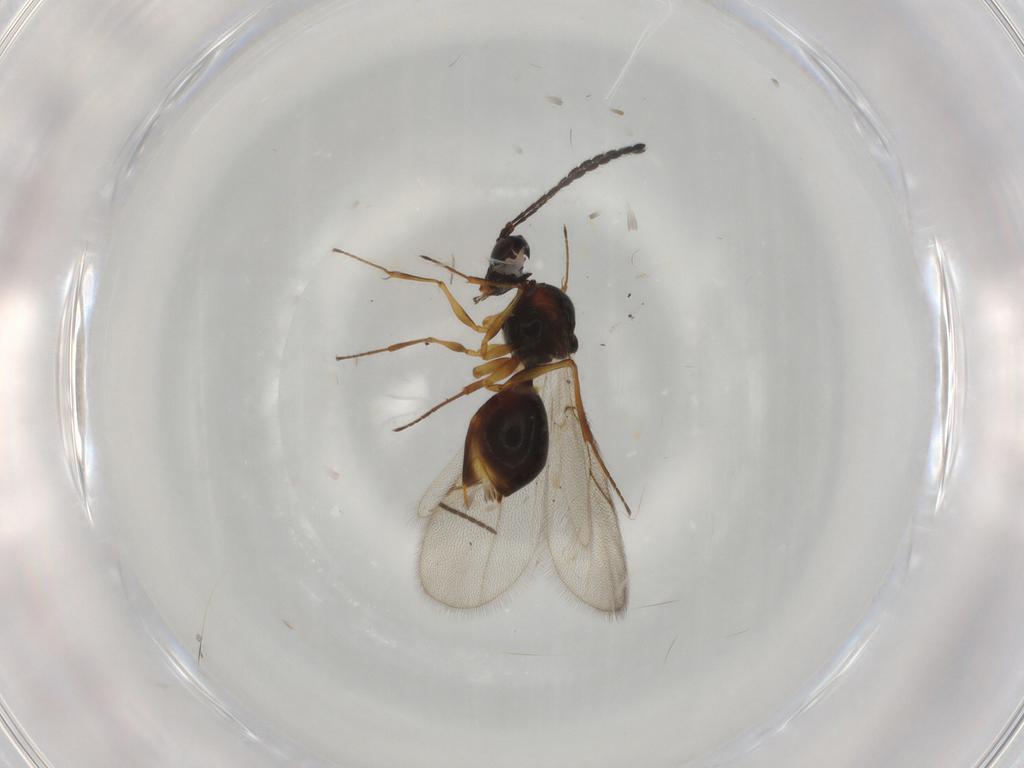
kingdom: Animalia
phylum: Arthropoda
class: Insecta
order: Hymenoptera
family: Figitidae
